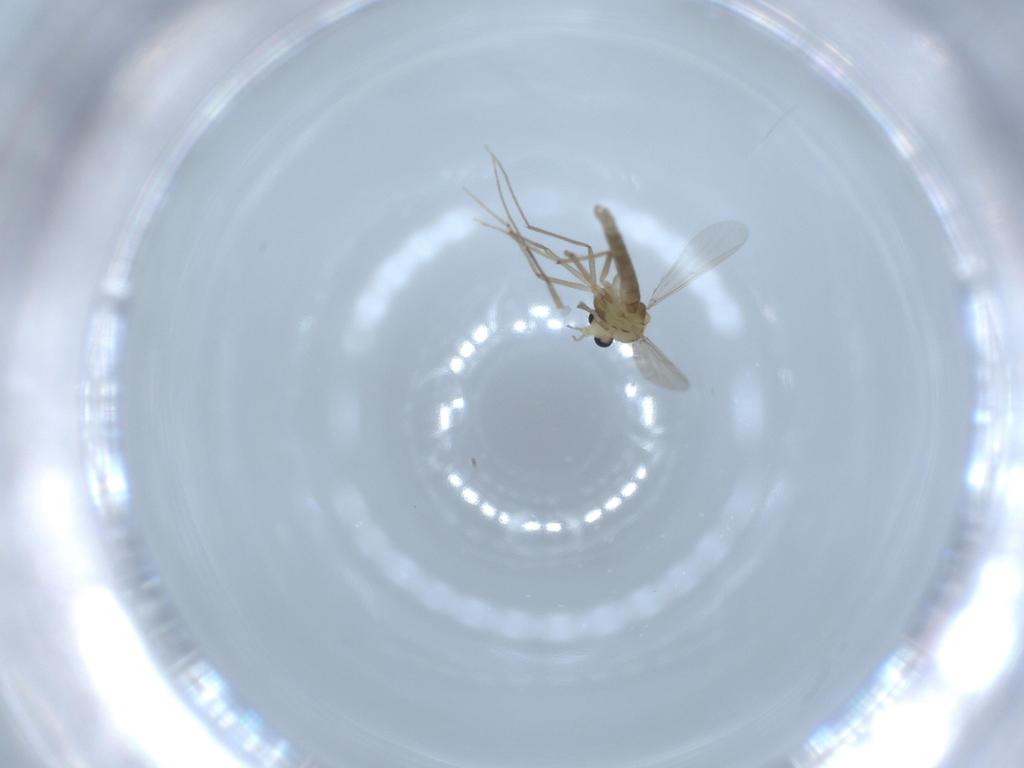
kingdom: Animalia
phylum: Arthropoda
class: Insecta
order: Diptera
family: Chironomidae
